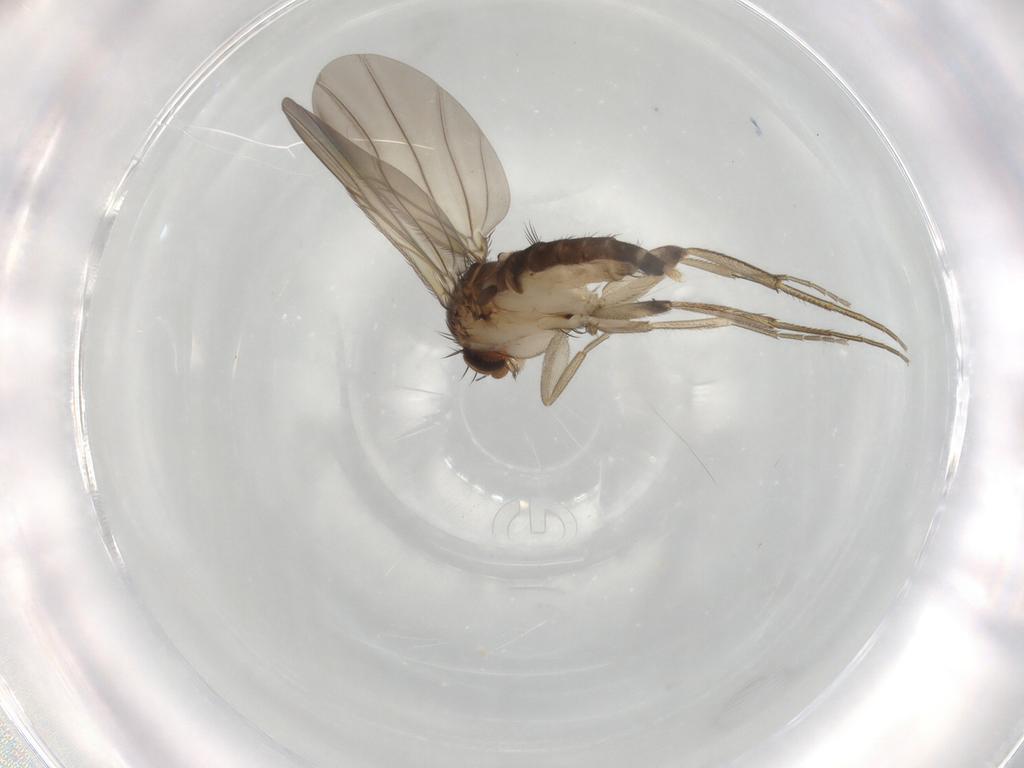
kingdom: Animalia
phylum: Arthropoda
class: Insecta
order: Diptera
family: Phoridae
